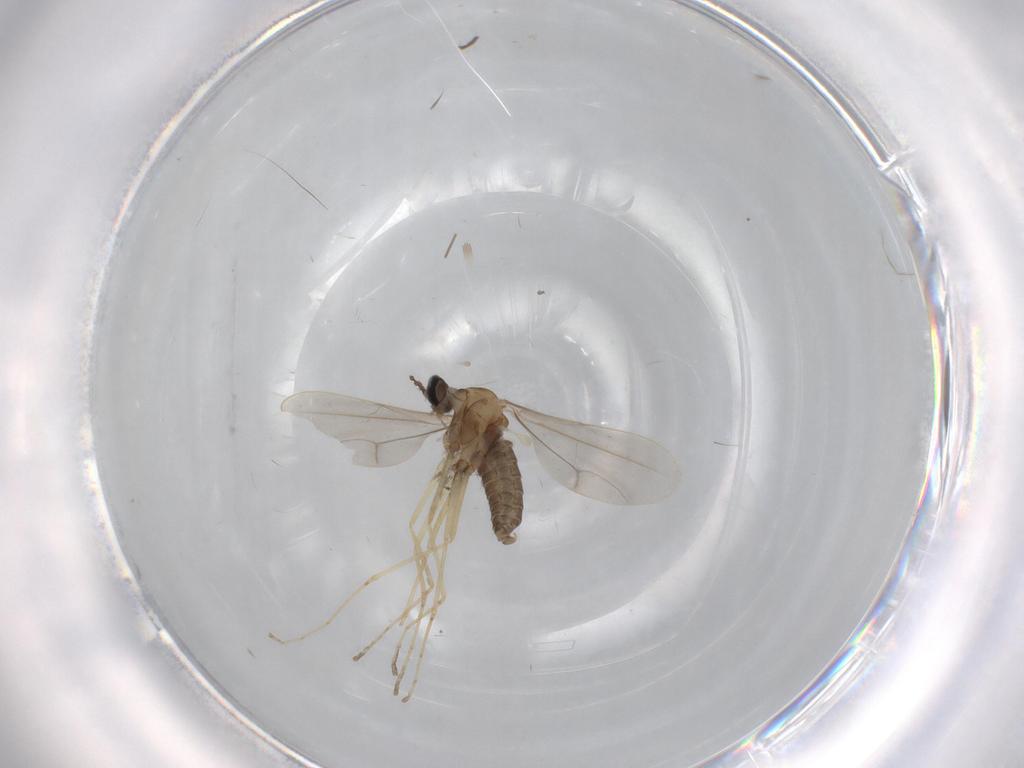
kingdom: Animalia
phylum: Arthropoda
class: Insecta
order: Diptera
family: Cecidomyiidae
